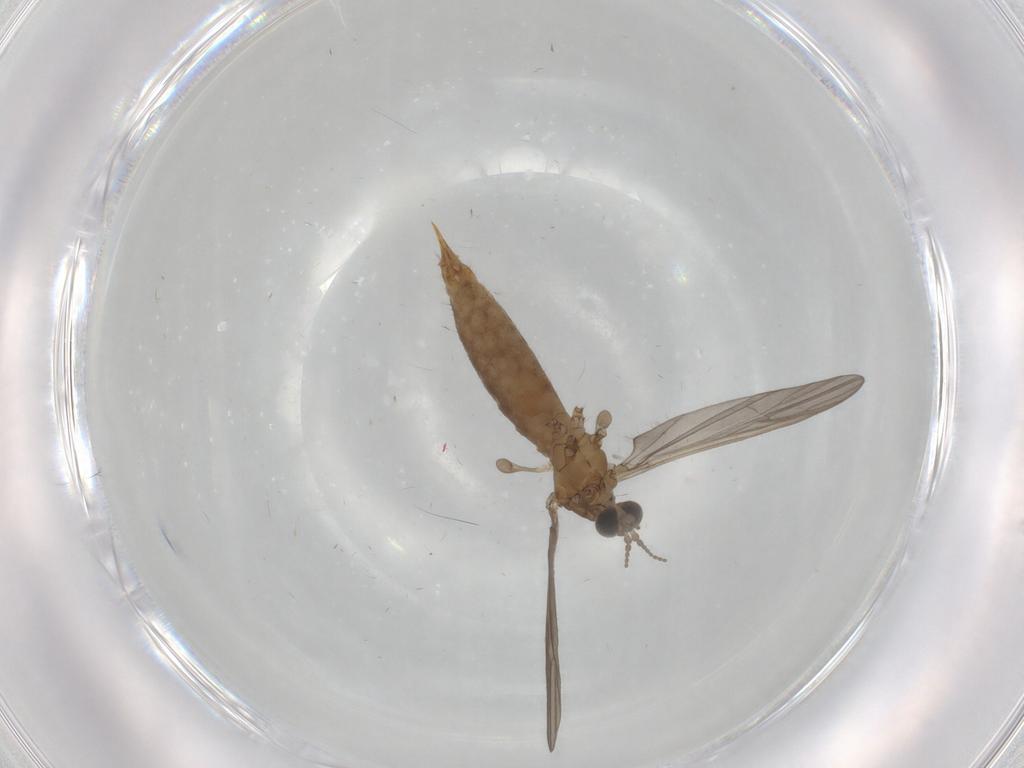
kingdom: Animalia
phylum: Arthropoda
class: Insecta
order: Diptera
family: Limoniidae
